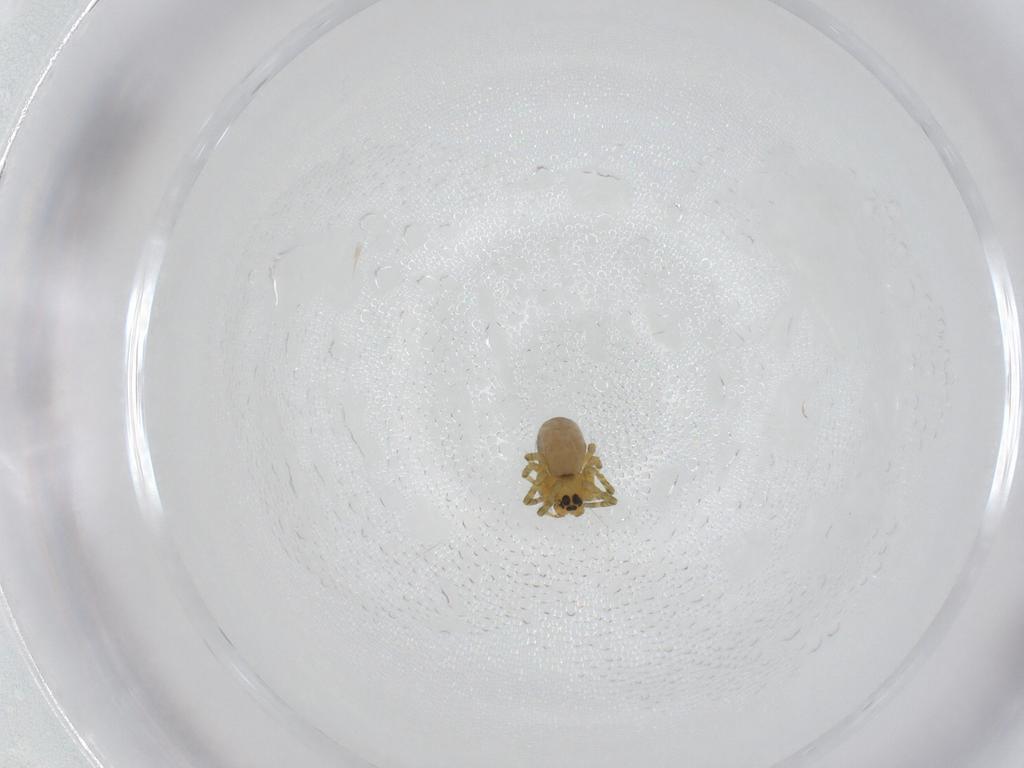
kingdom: Animalia
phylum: Arthropoda
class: Arachnida
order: Araneae
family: Linyphiidae
